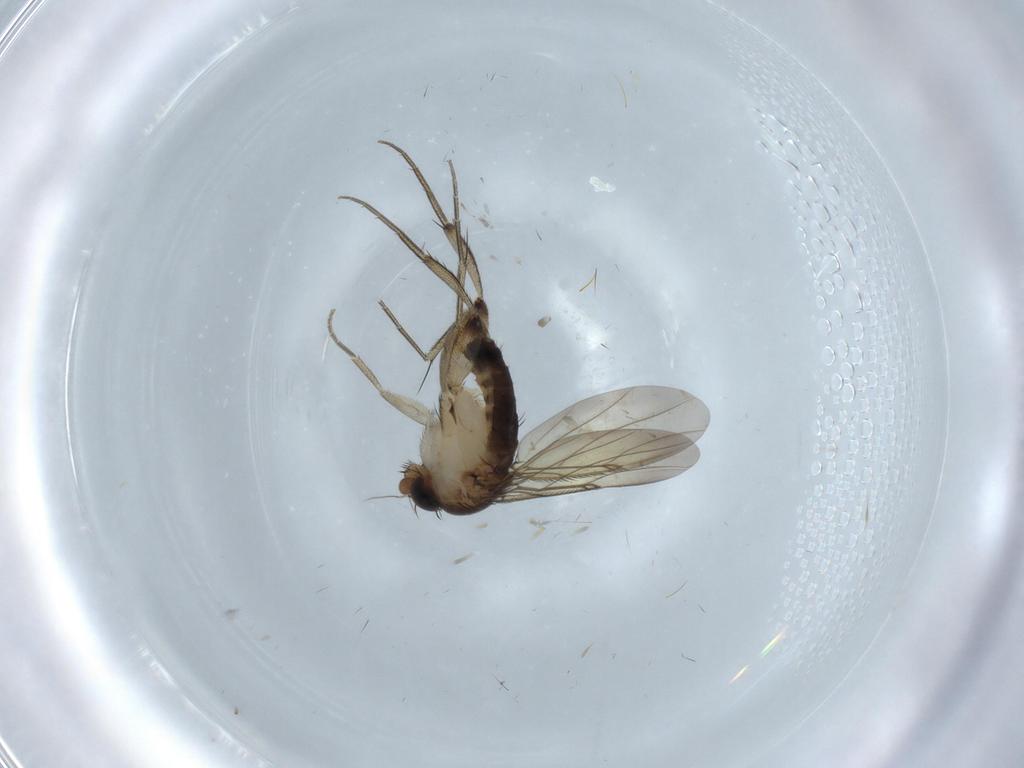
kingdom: Animalia
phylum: Arthropoda
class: Insecta
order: Diptera
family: Phoridae
